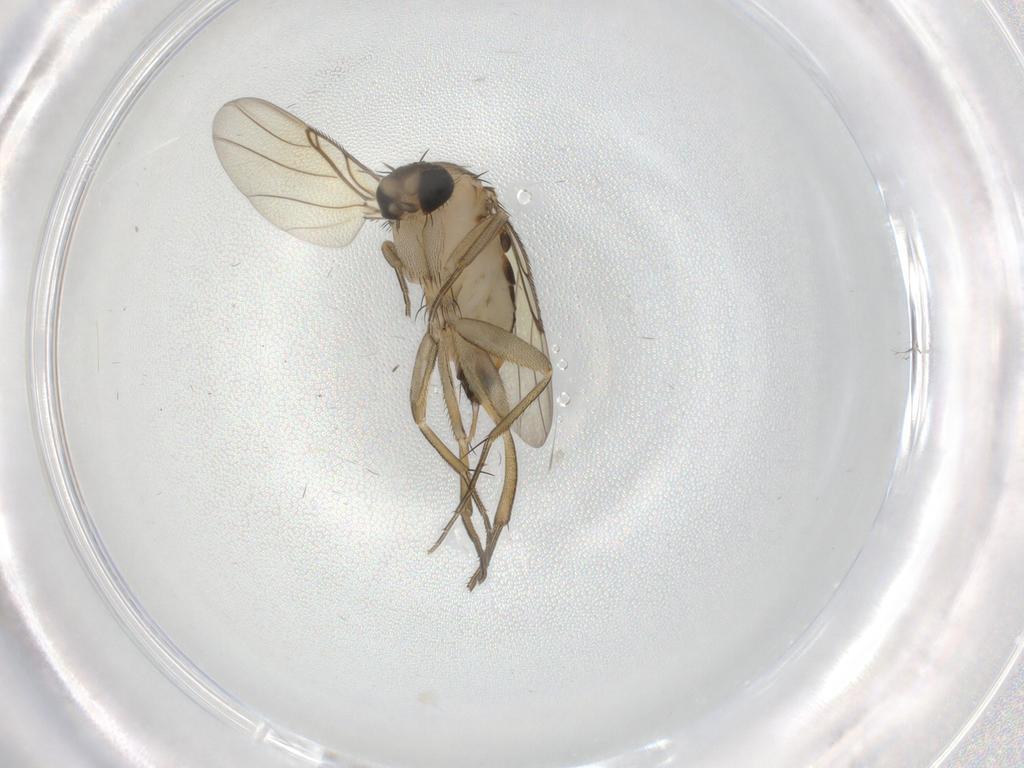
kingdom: Animalia
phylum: Arthropoda
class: Insecta
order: Diptera
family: Phoridae
